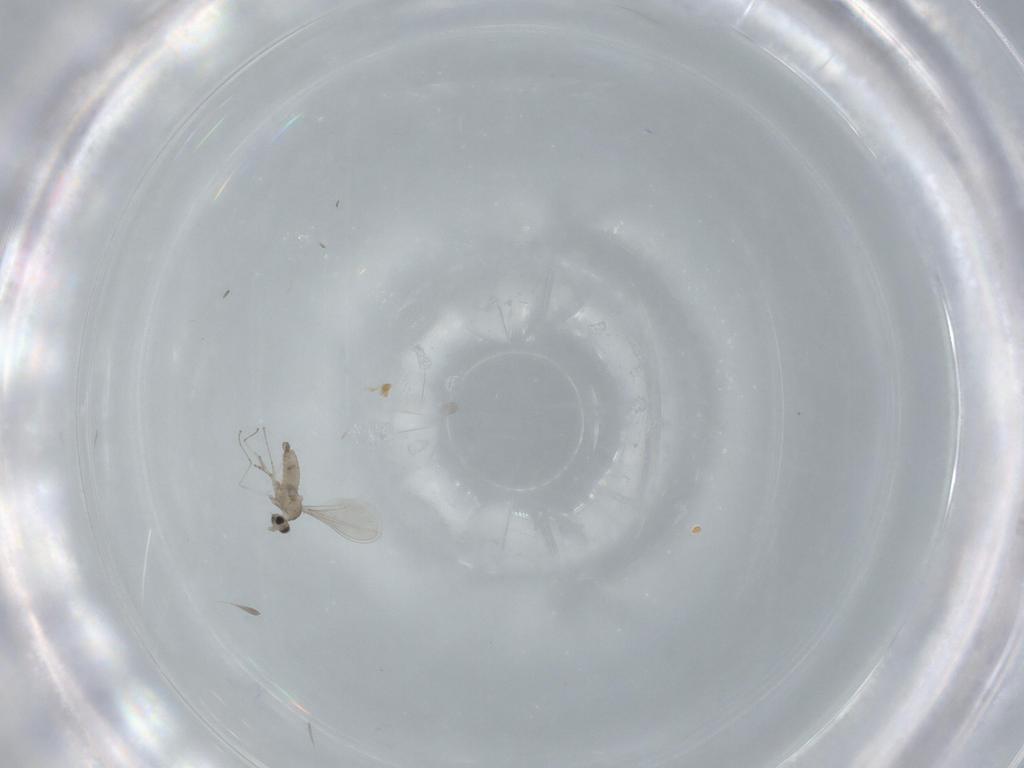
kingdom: Animalia
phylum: Arthropoda
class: Insecta
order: Diptera
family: Cecidomyiidae
